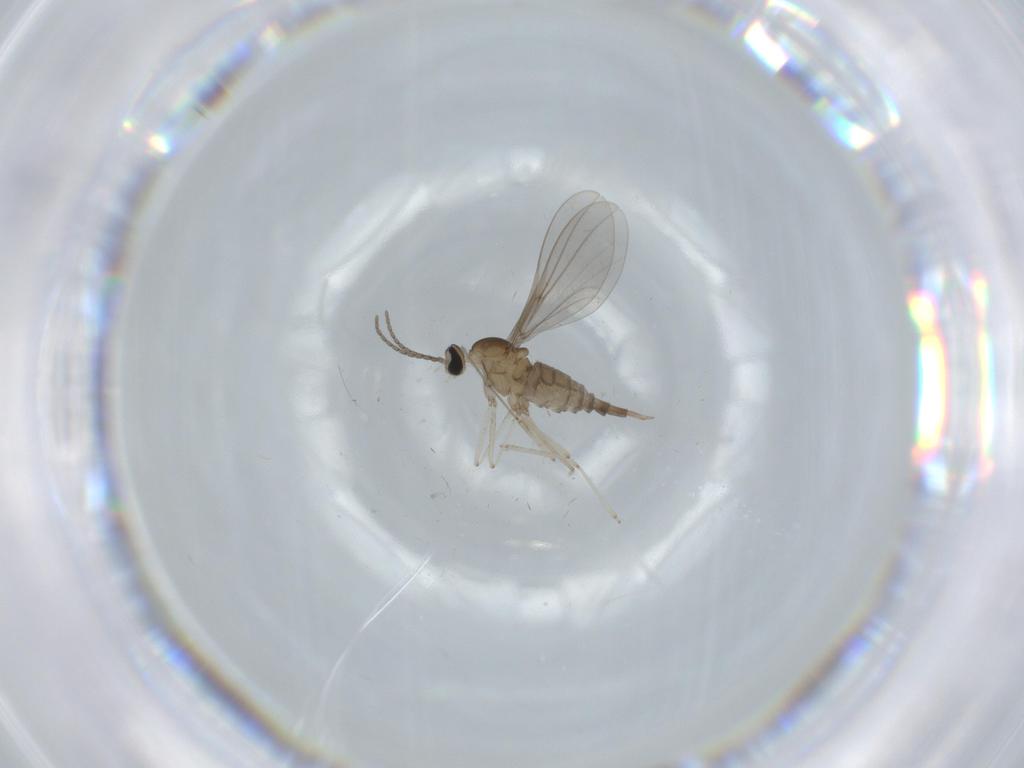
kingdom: Animalia
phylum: Arthropoda
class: Insecta
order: Diptera
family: Cecidomyiidae
